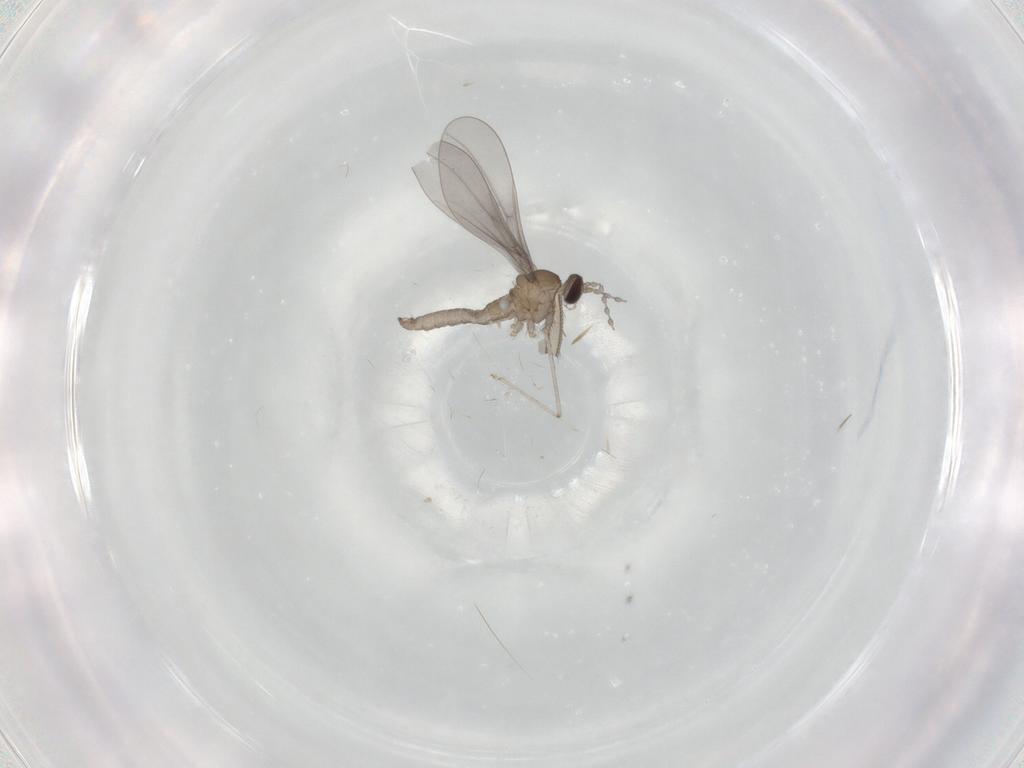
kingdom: Animalia
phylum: Arthropoda
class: Insecta
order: Diptera
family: Cecidomyiidae
